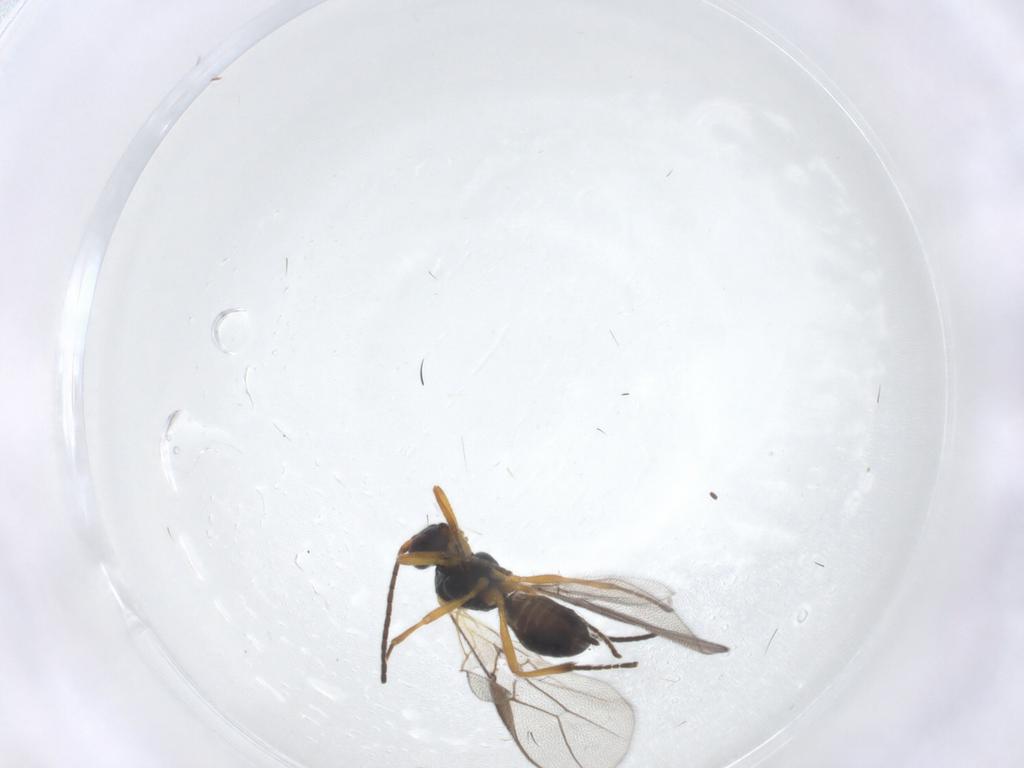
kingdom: Animalia
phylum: Arthropoda
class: Insecta
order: Hymenoptera
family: Braconidae
